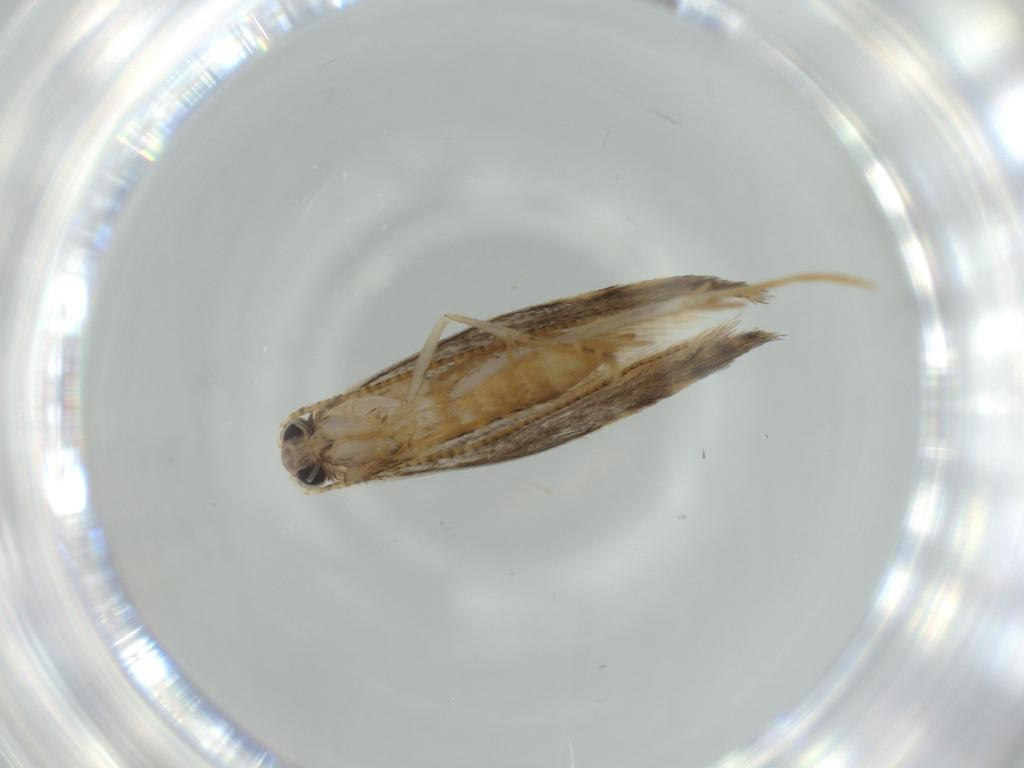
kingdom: Animalia
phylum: Arthropoda
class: Insecta
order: Lepidoptera
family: Tineidae
